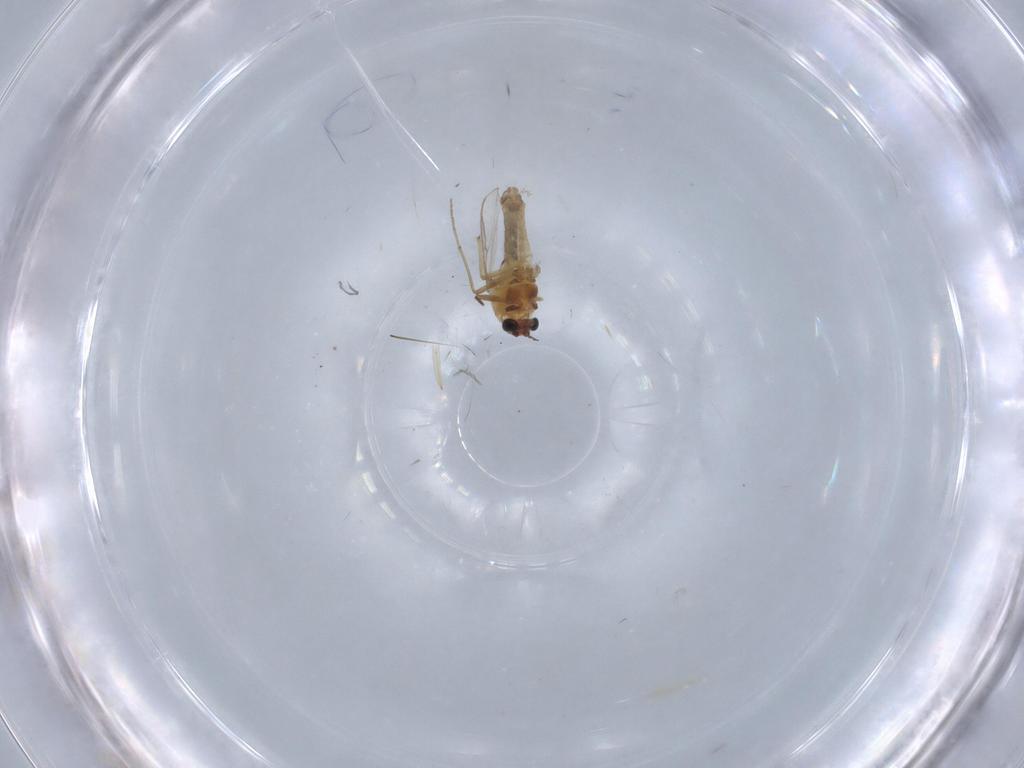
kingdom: Animalia
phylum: Arthropoda
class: Insecta
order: Diptera
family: Chironomidae
